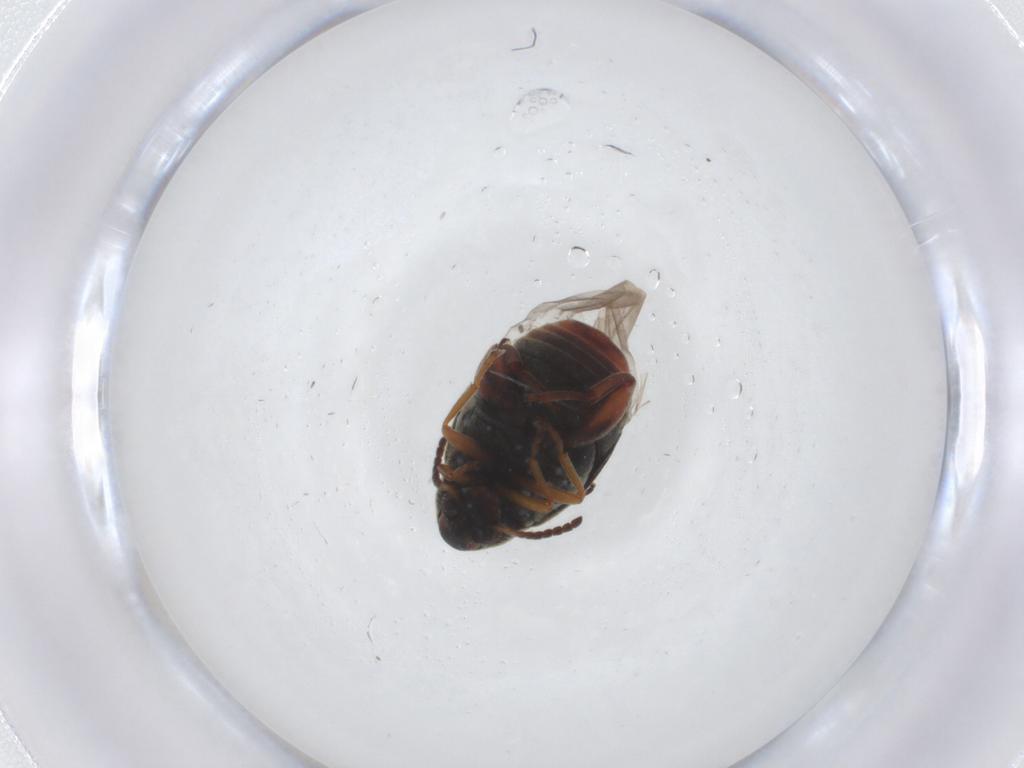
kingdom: Animalia
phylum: Arthropoda
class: Insecta
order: Coleoptera
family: Chrysomelidae
